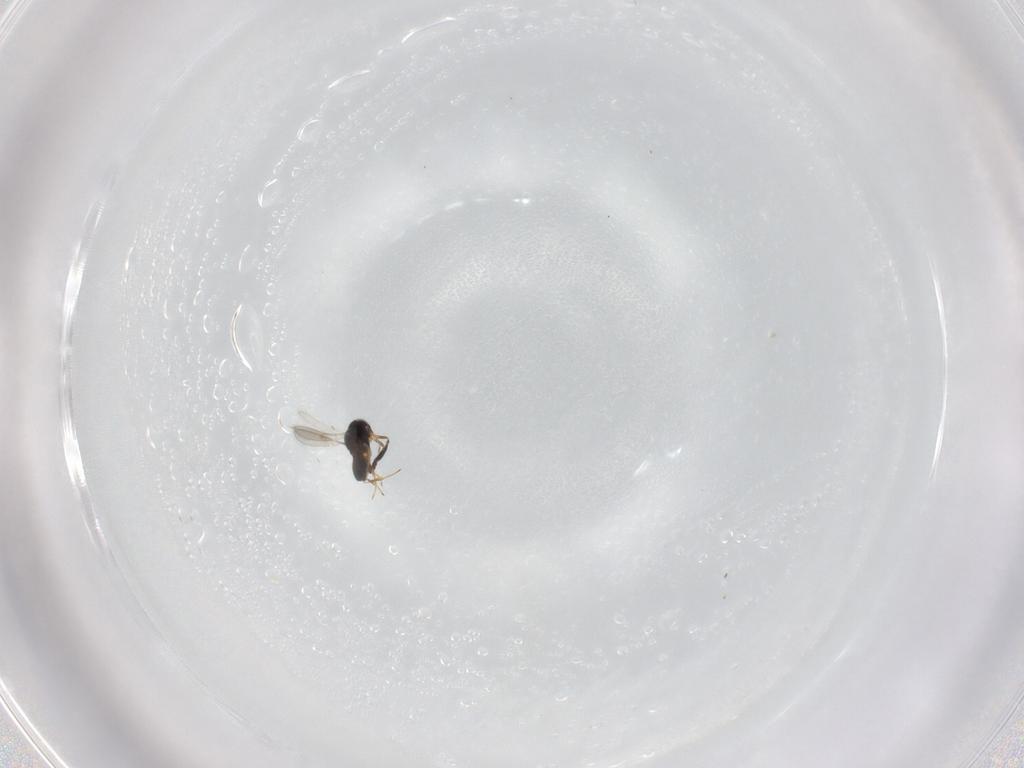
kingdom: Animalia
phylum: Arthropoda
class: Insecta
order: Hymenoptera
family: Scelionidae
